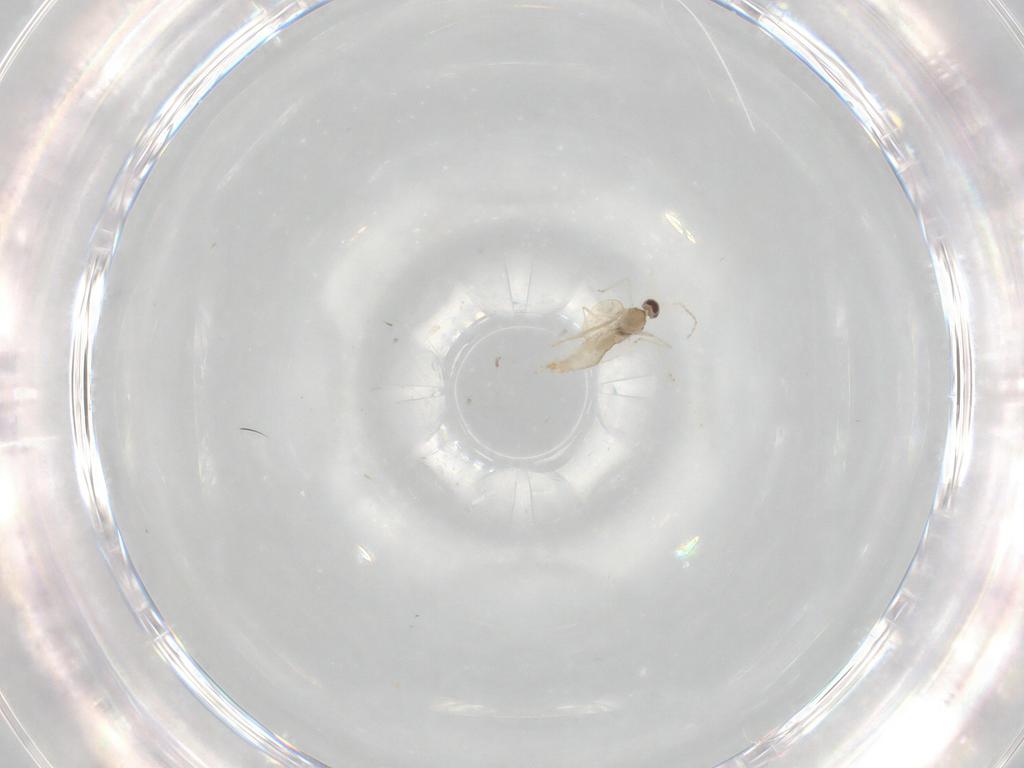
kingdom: Animalia
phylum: Arthropoda
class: Insecta
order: Diptera
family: Cecidomyiidae
